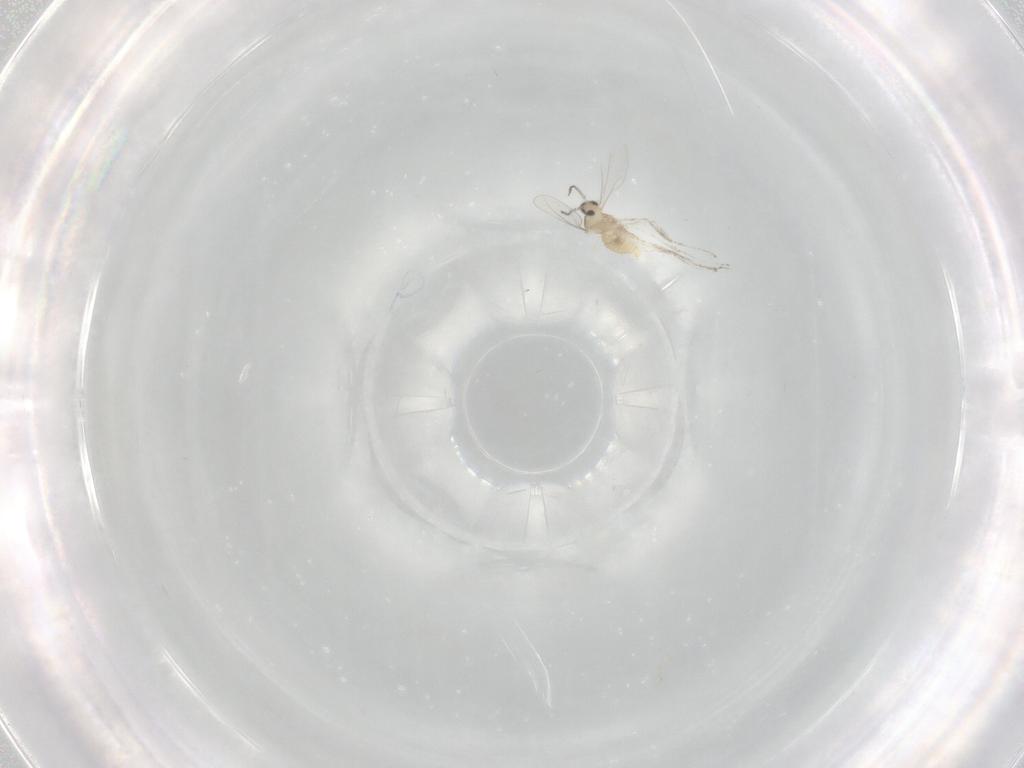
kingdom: Animalia
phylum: Arthropoda
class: Insecta
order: Diptera
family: Cecidomyiidae
